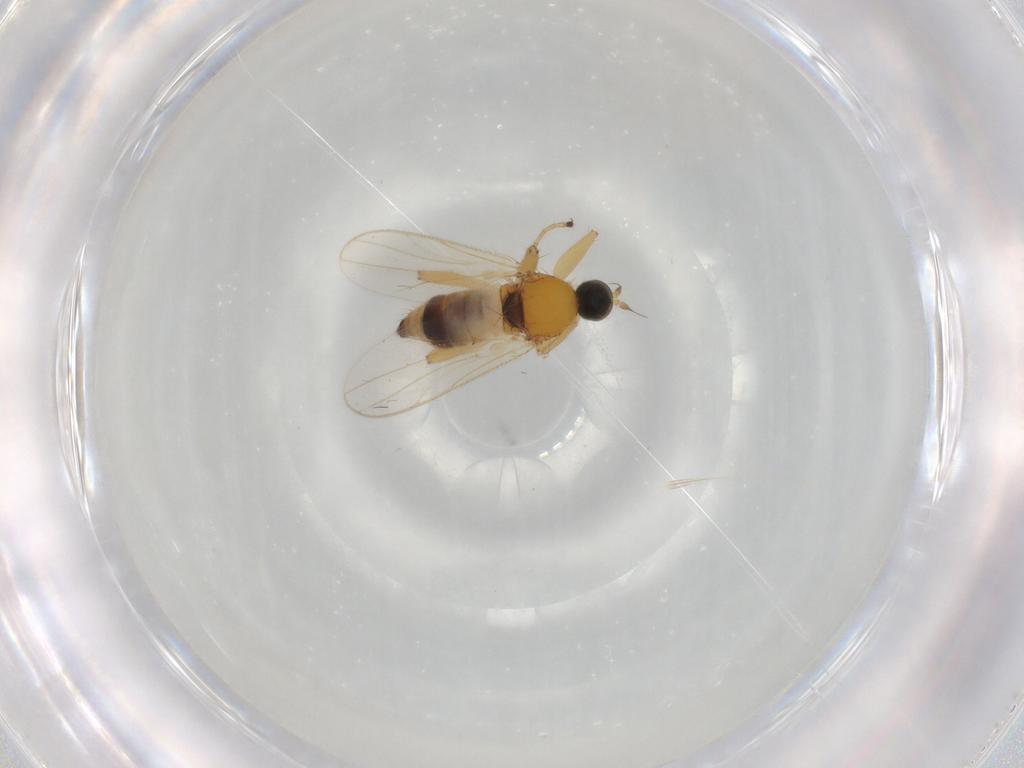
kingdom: Animalia
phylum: Arthropoda
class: Insecta
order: Diptera
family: Hybotidae
